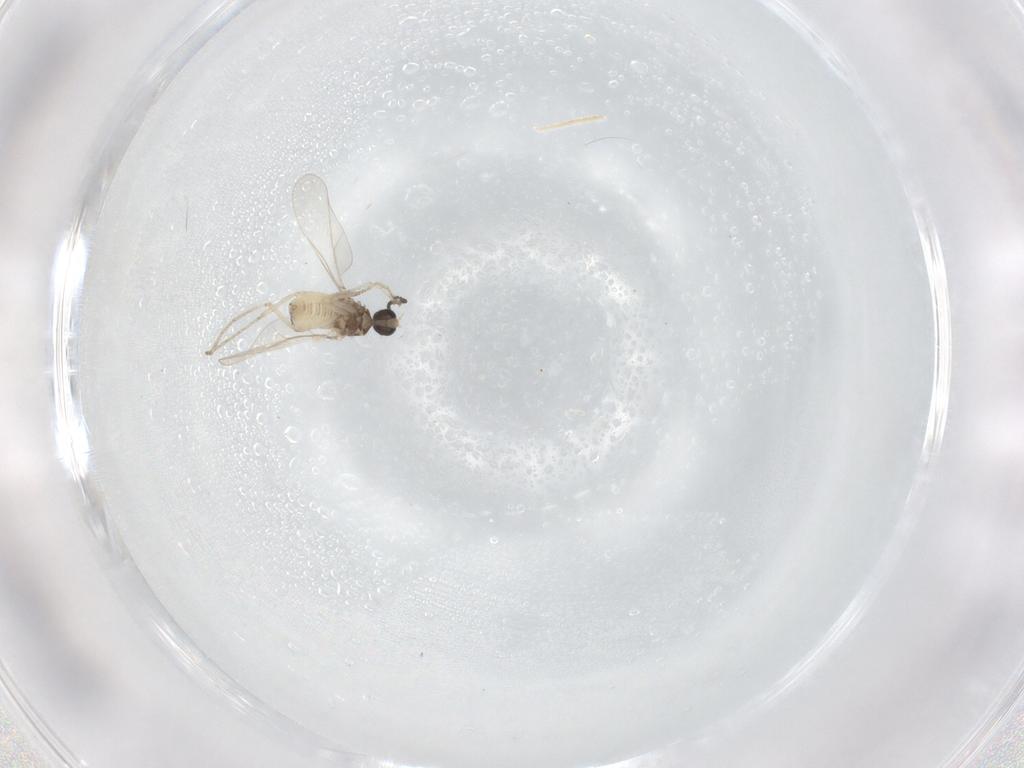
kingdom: Animalia
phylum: Arthropoda
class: Insecta
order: Diptera
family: Cecidomyiidae
